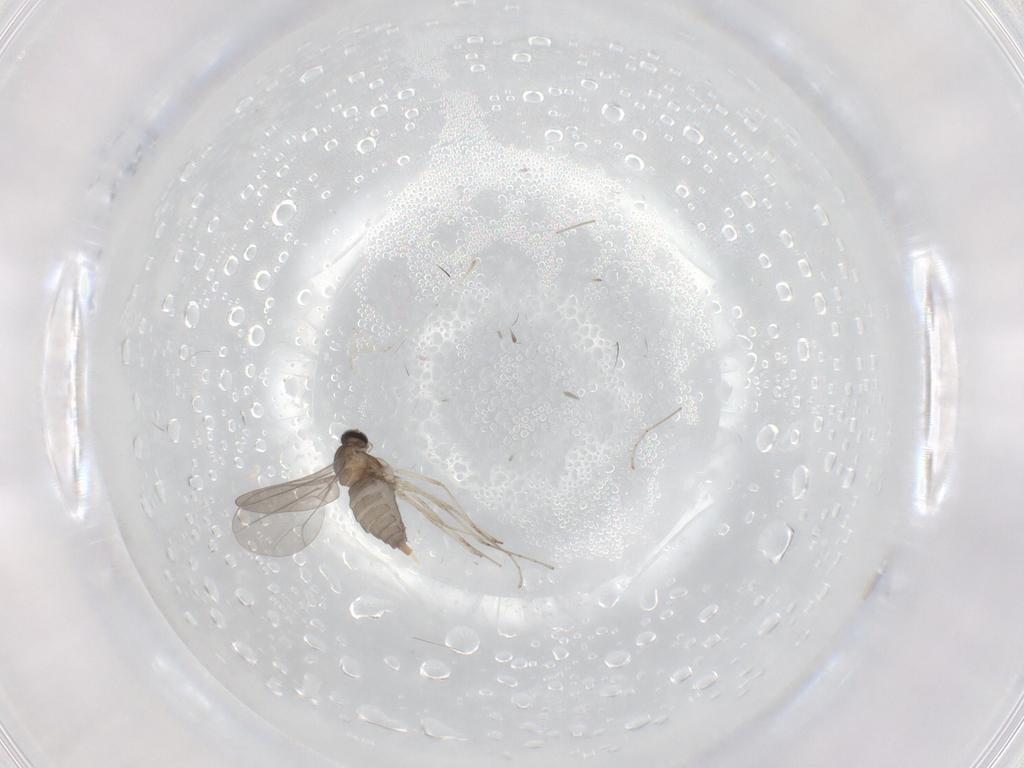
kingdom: Animalia
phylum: Arthropoda
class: Insecta
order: Diptera
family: Cecidomyiidae
